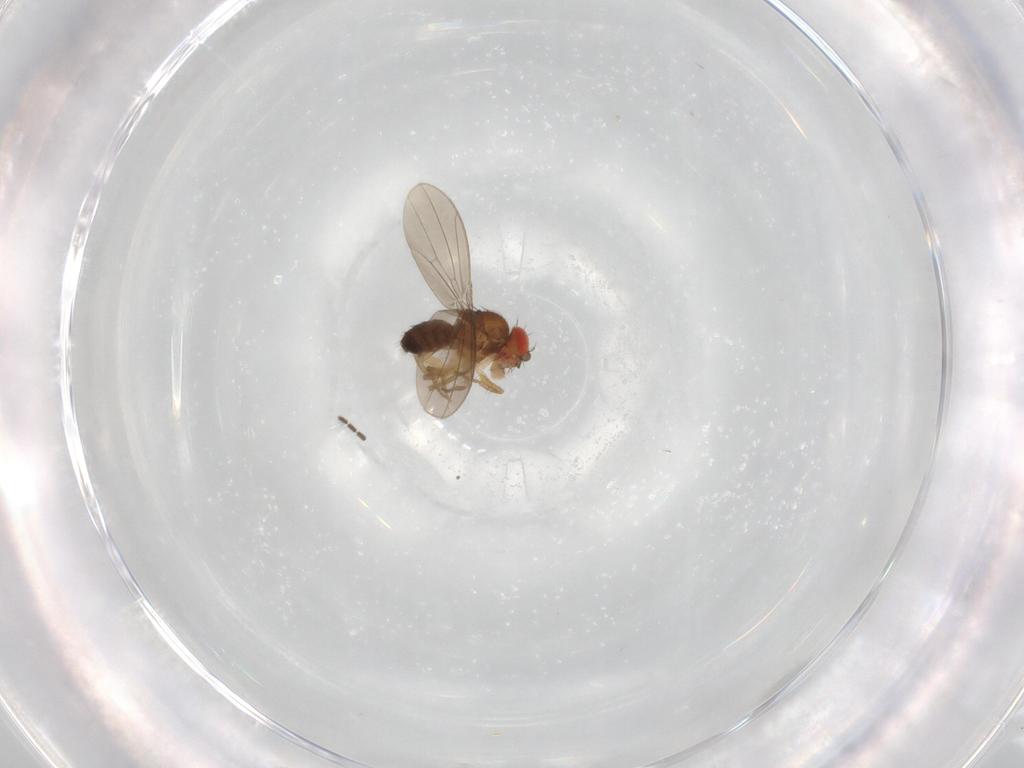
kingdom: Animalia
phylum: Arthropoda
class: Insecta
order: Diptera
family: Drosophilidae
